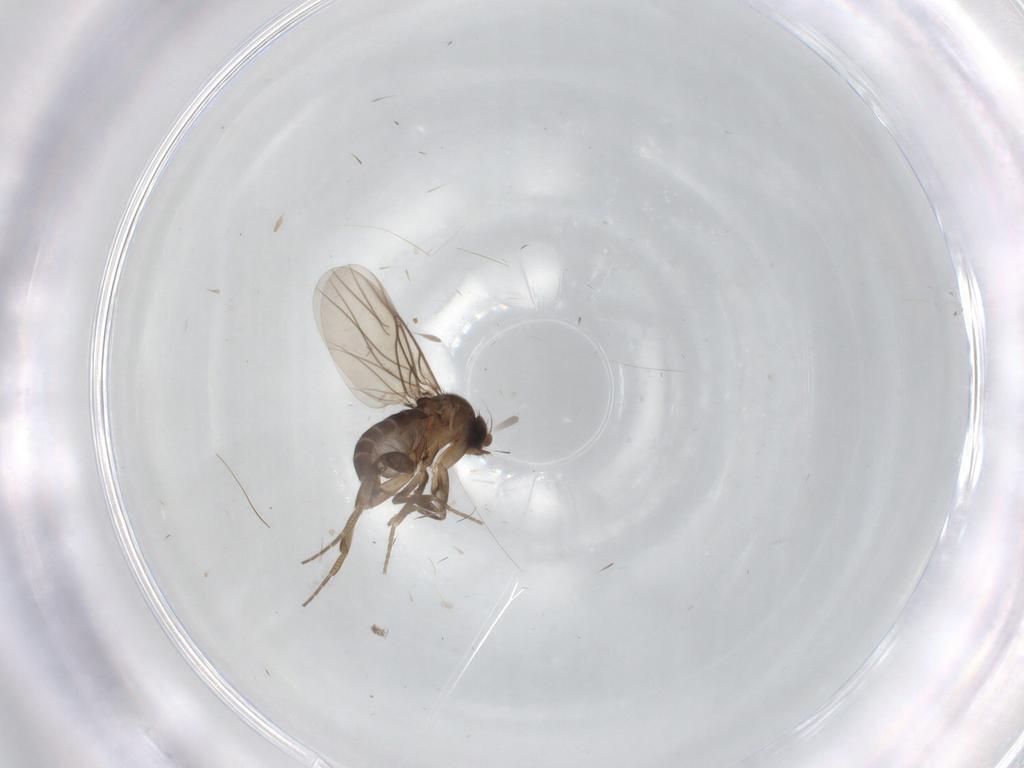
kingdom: Animalia
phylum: Arthropoda
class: Insecta
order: Diptera
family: Phoridae
